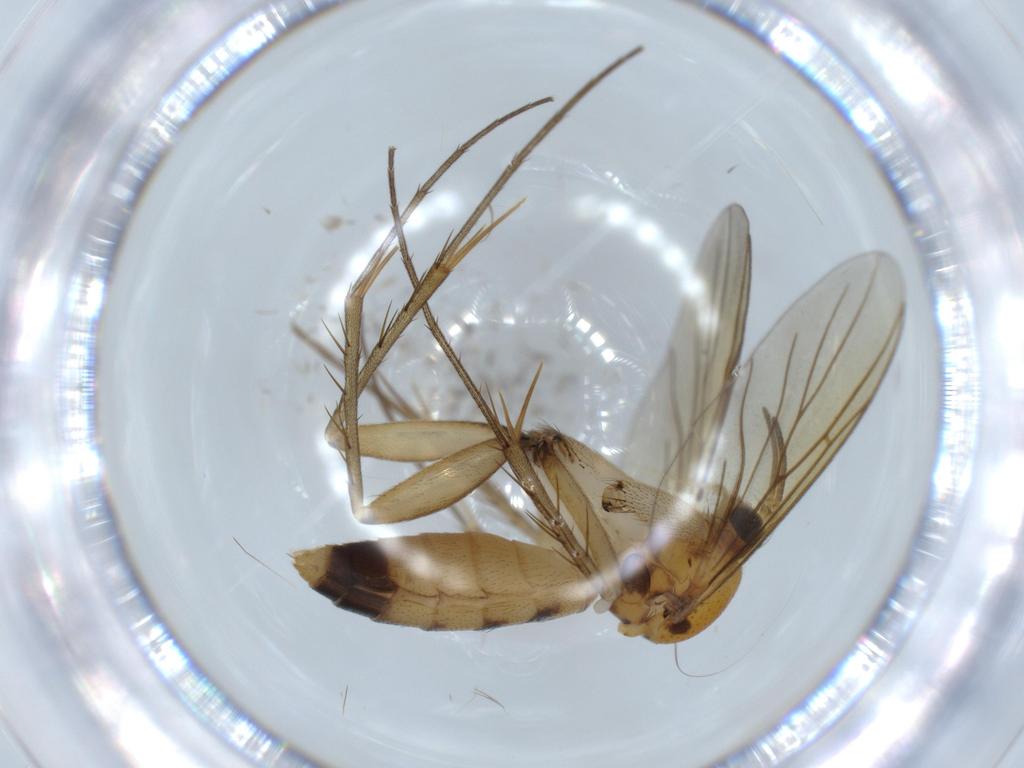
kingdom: Animalia
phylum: Arthropoda
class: Insecta
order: Diptera
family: Mycetophilidae
